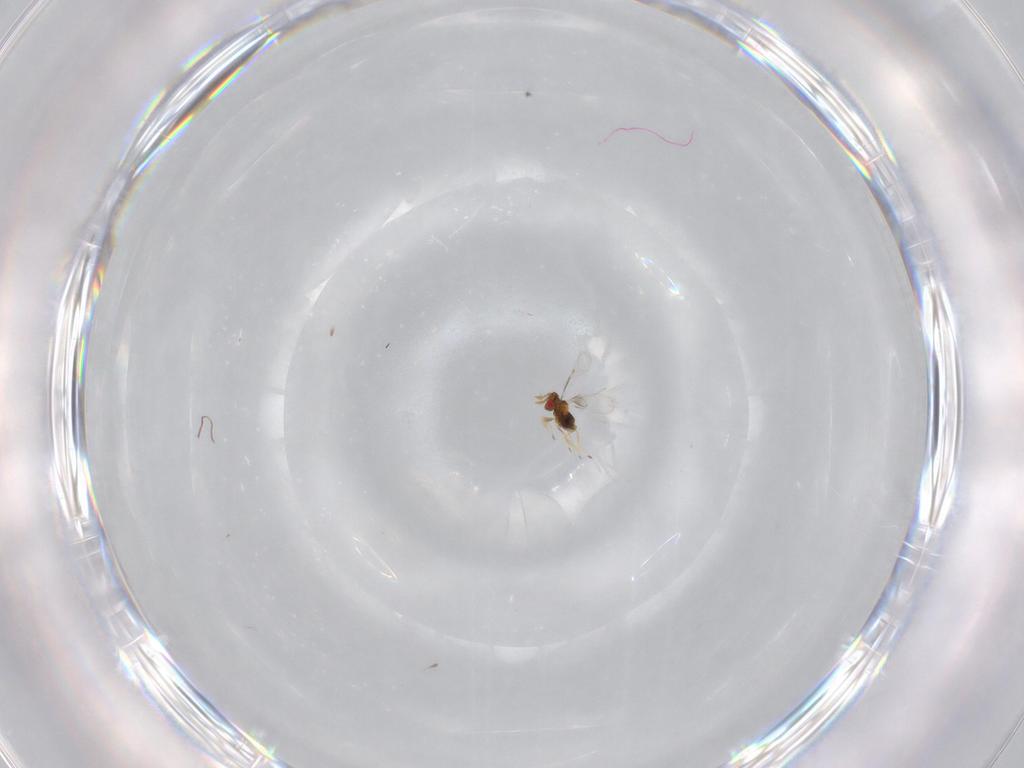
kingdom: Animalia
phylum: Arthropoda
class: Insecta
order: Hymenoptera
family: Trichogrammatidae
